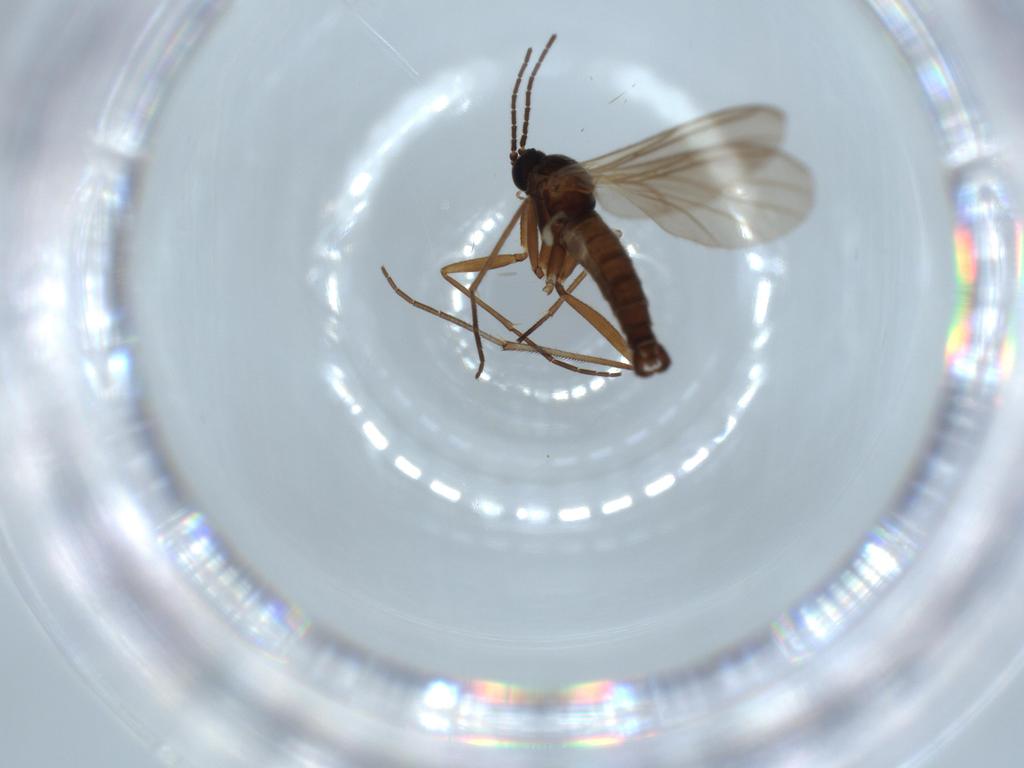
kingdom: Animalia
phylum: Arthropoda
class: Insecta
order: Diptera
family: Sciaridae
